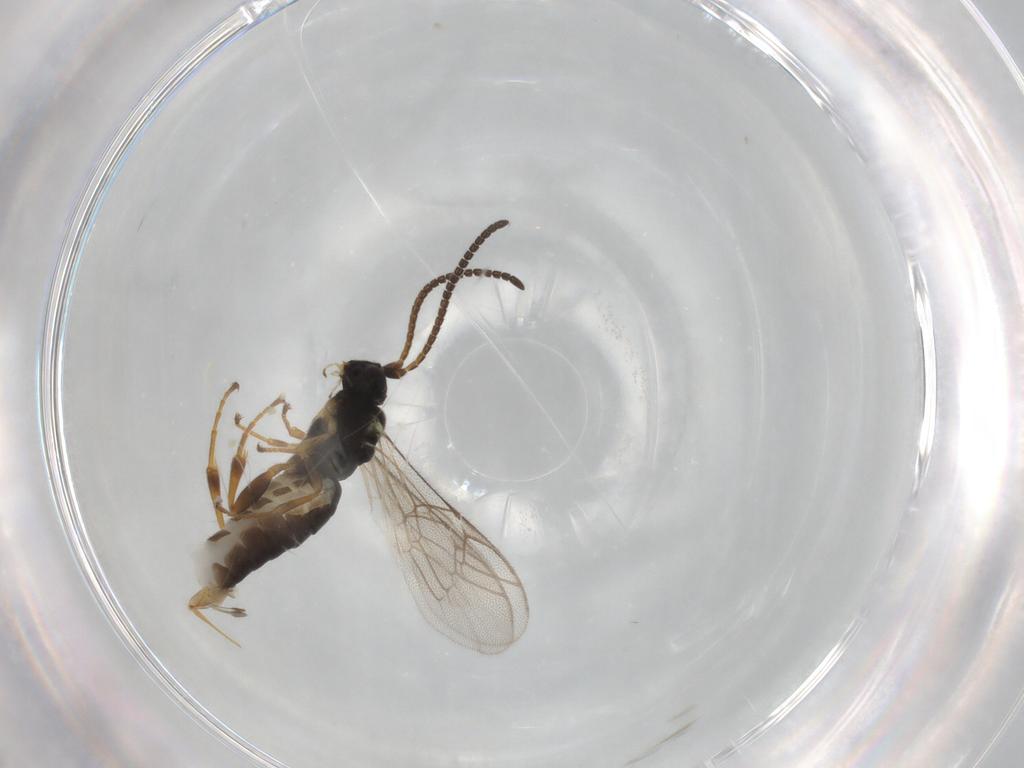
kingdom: Animalia
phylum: Arthropoda
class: Insecta
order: Hymenoptera
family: Ichneumonidae
